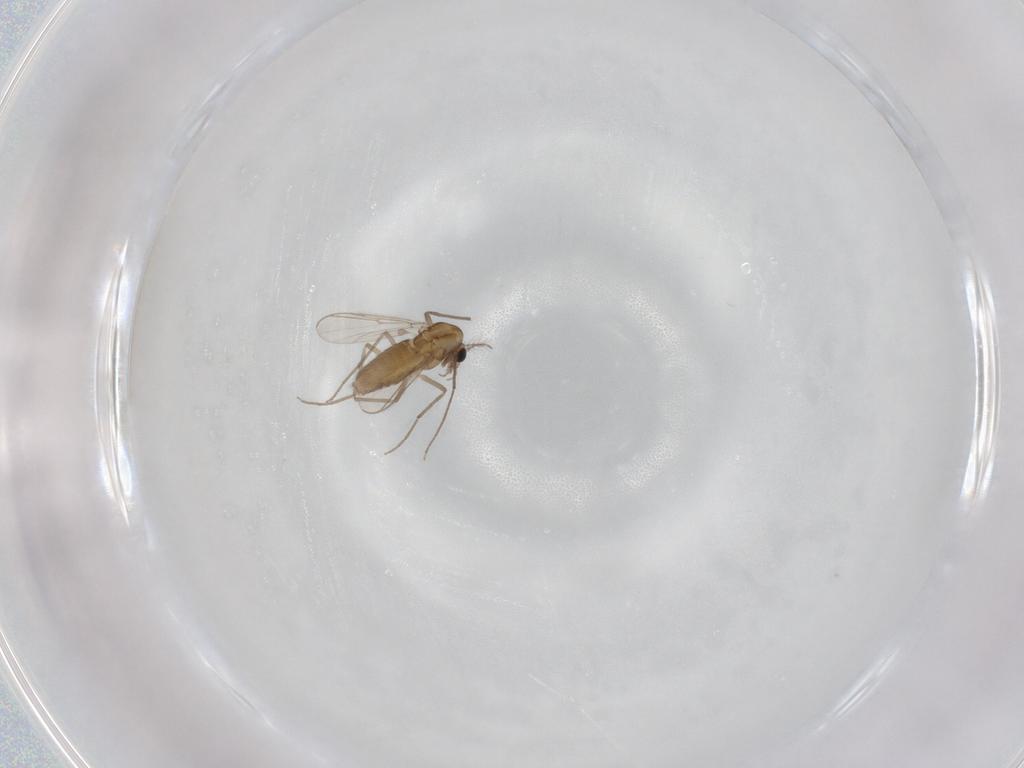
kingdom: Animalia
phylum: Arthropoda
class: Insecta
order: Diptera
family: Chironomidae
